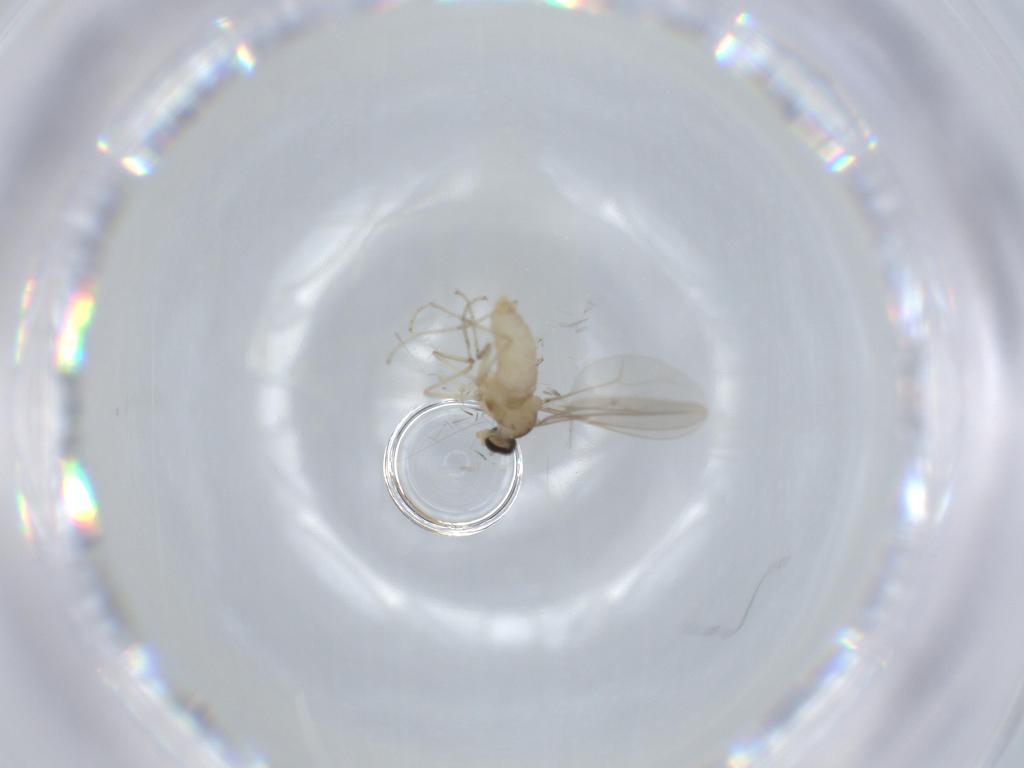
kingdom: Animalia
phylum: Arthropoda
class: Insecta
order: Diptera
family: Cecidomyiidae
